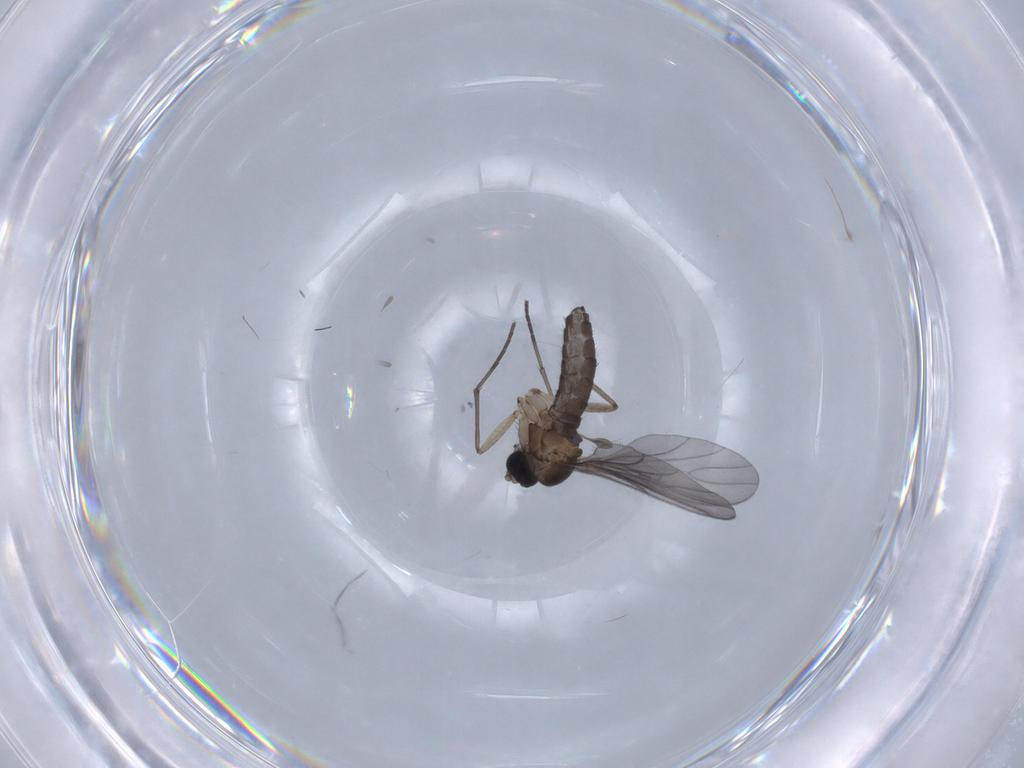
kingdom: Animalia
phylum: Arthropoda
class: Insecta
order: Diptera
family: Sciaridae
